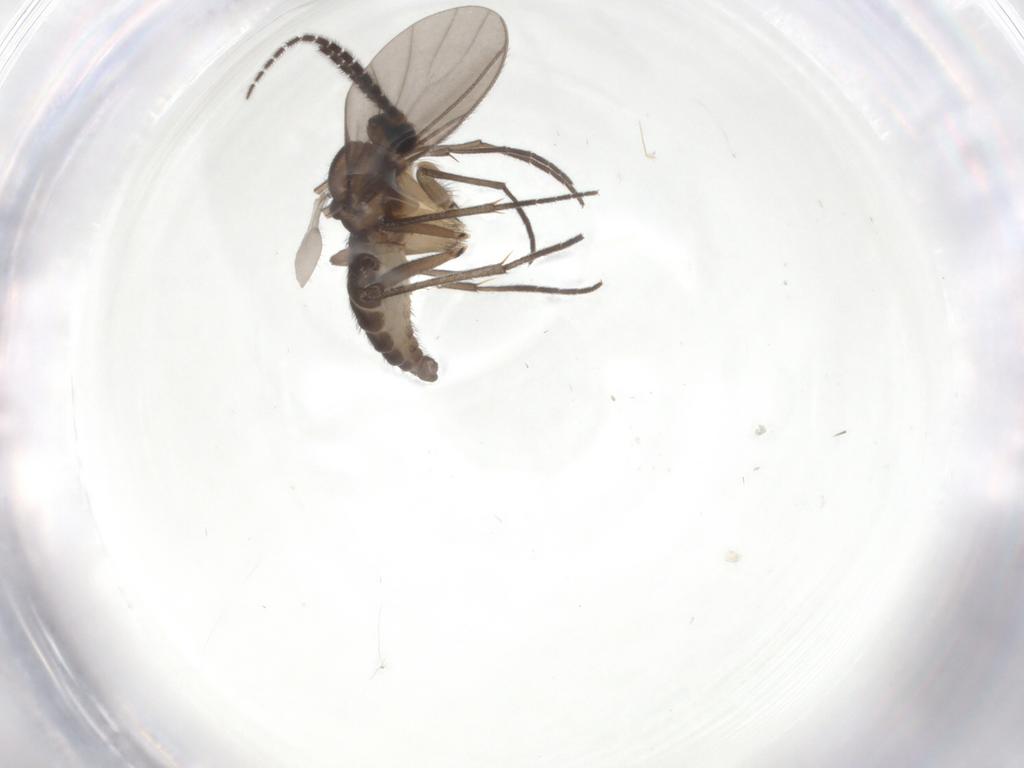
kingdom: Animalia
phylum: Arthropoda
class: Insecta
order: Diptera
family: Sciaridae
